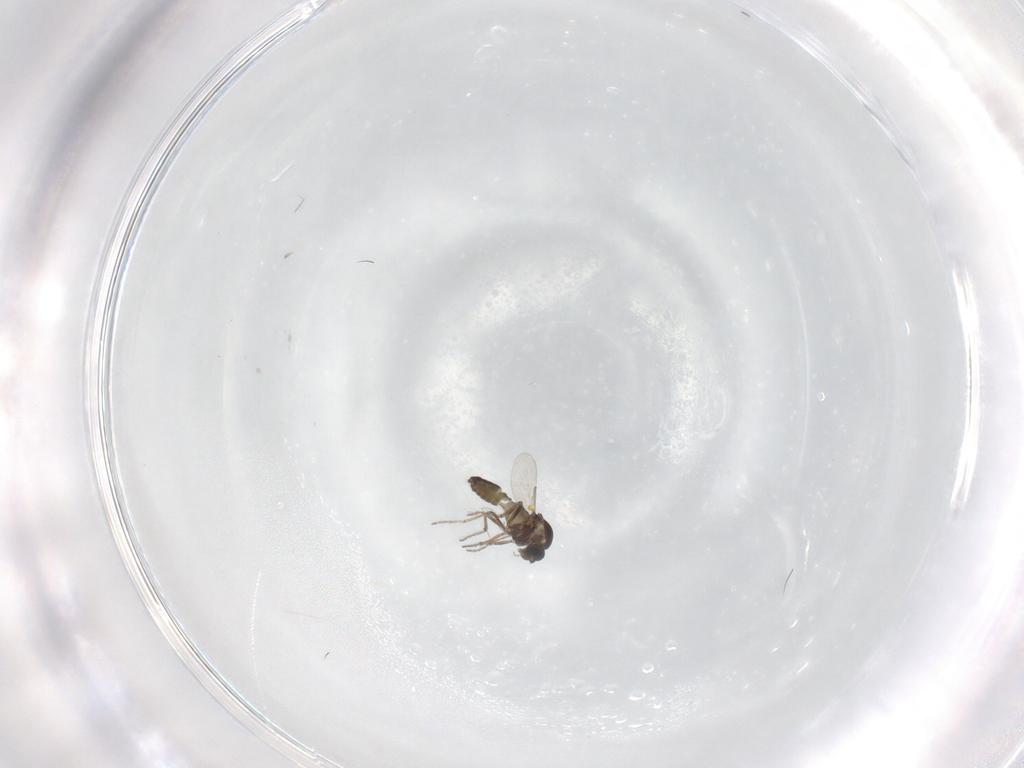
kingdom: Animalia
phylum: Arthropoda
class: Insecta
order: Diptera
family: Ceratopogonidae
